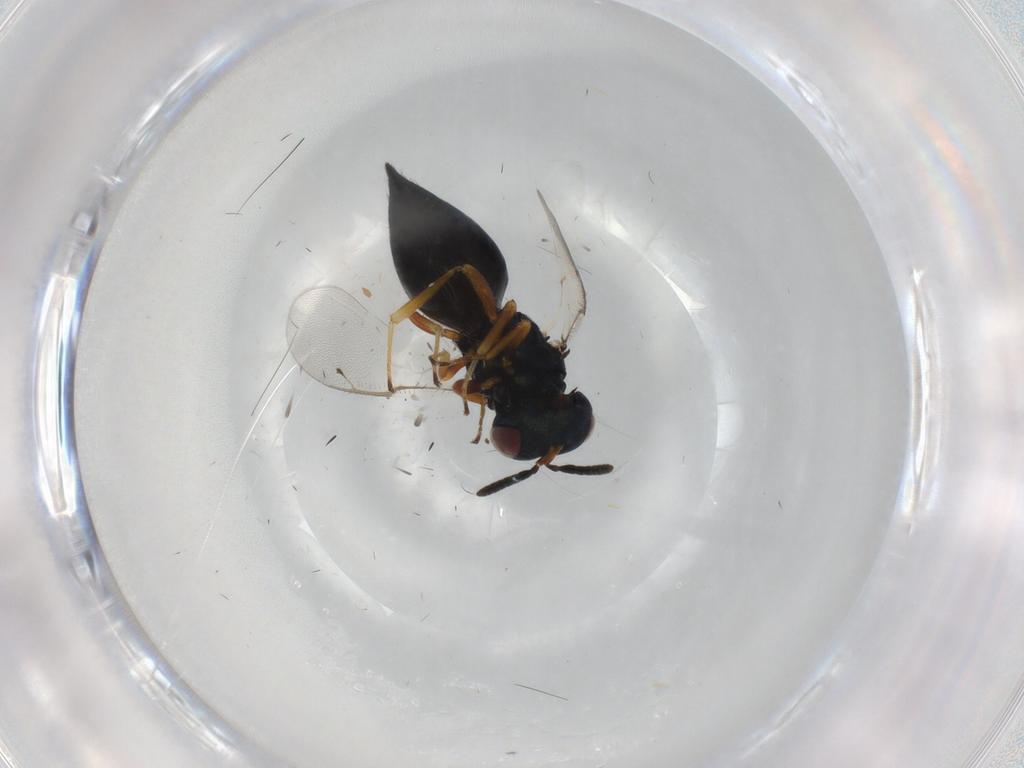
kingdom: Animalia
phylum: Arthropoda
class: Insecta
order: Hymenoptera
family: Pteromalidae
